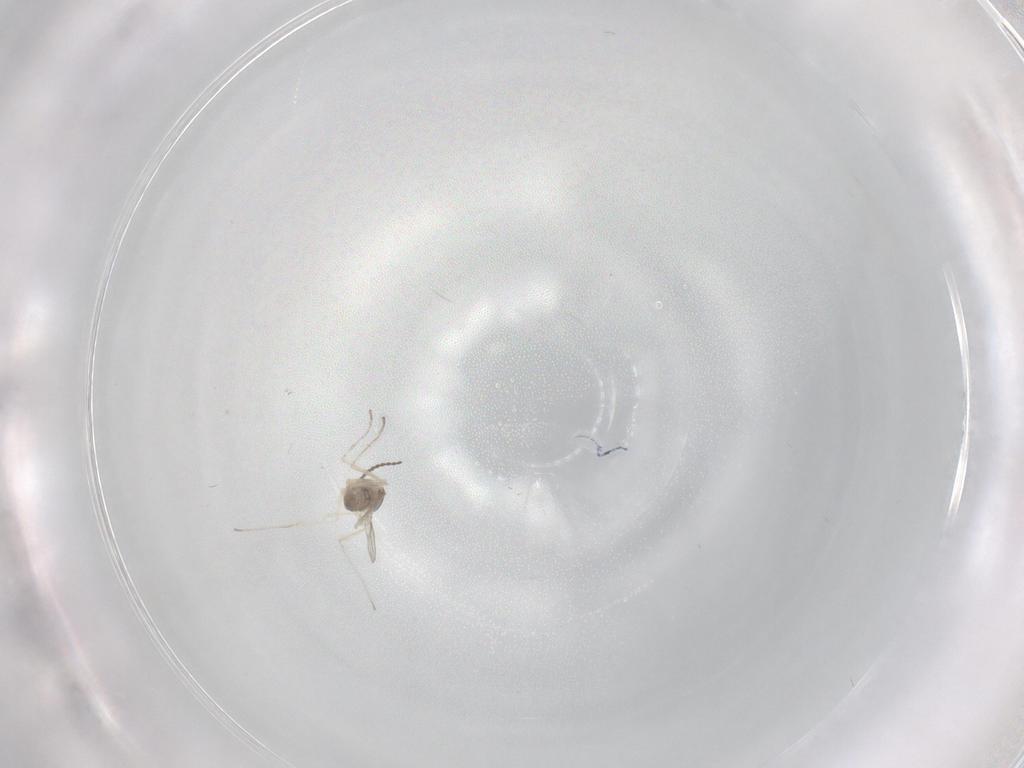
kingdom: Animalia
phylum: Arthropoda
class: Insecta
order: Diptera
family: Cecidomyiidae
